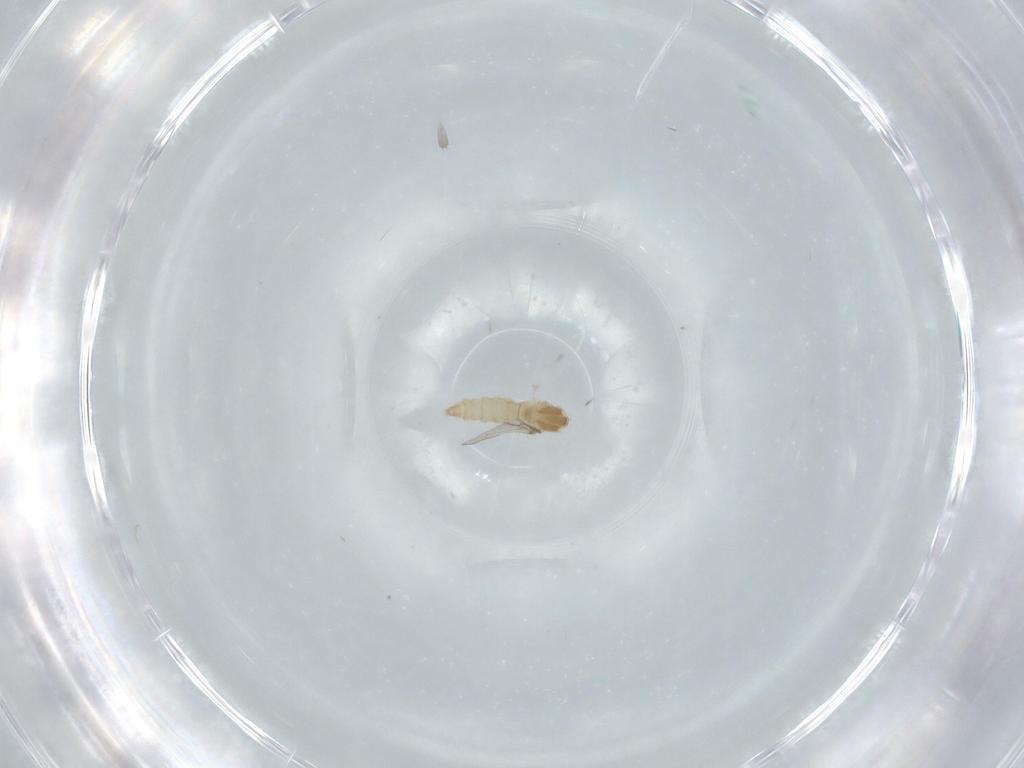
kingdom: Animalia
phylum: Arthropoda
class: Insecta
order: Diptera
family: Cecidomyiidae
